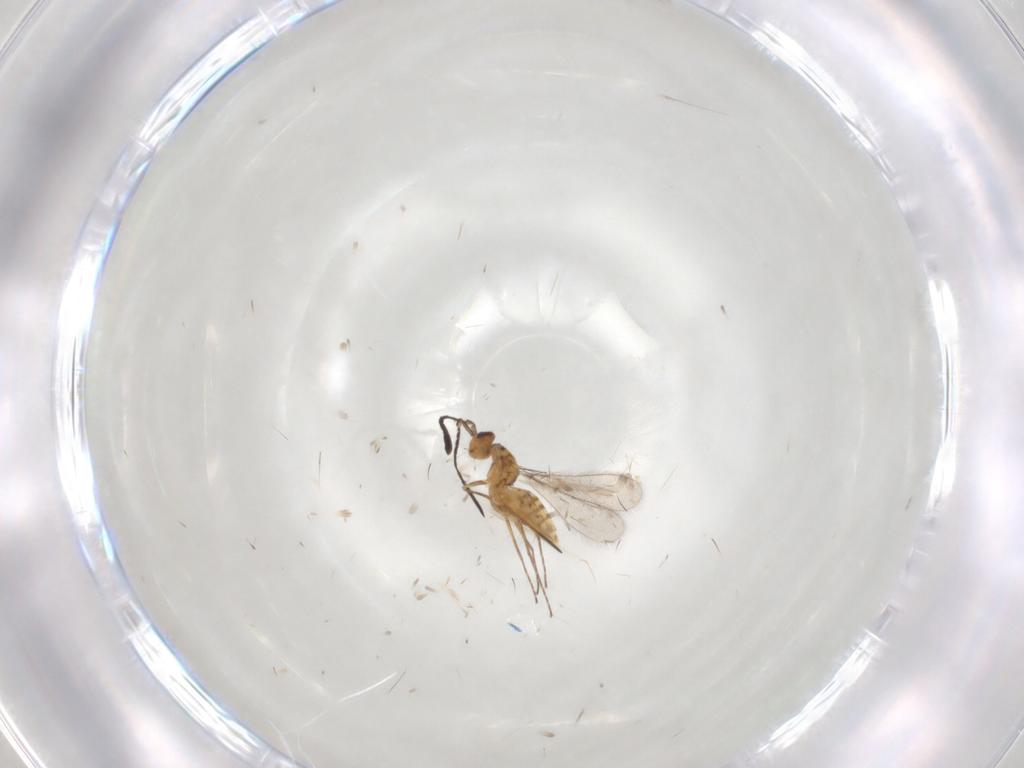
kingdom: Animalia
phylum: Arthropoda
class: Insecta
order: Hymenoptera
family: Mymaridae
